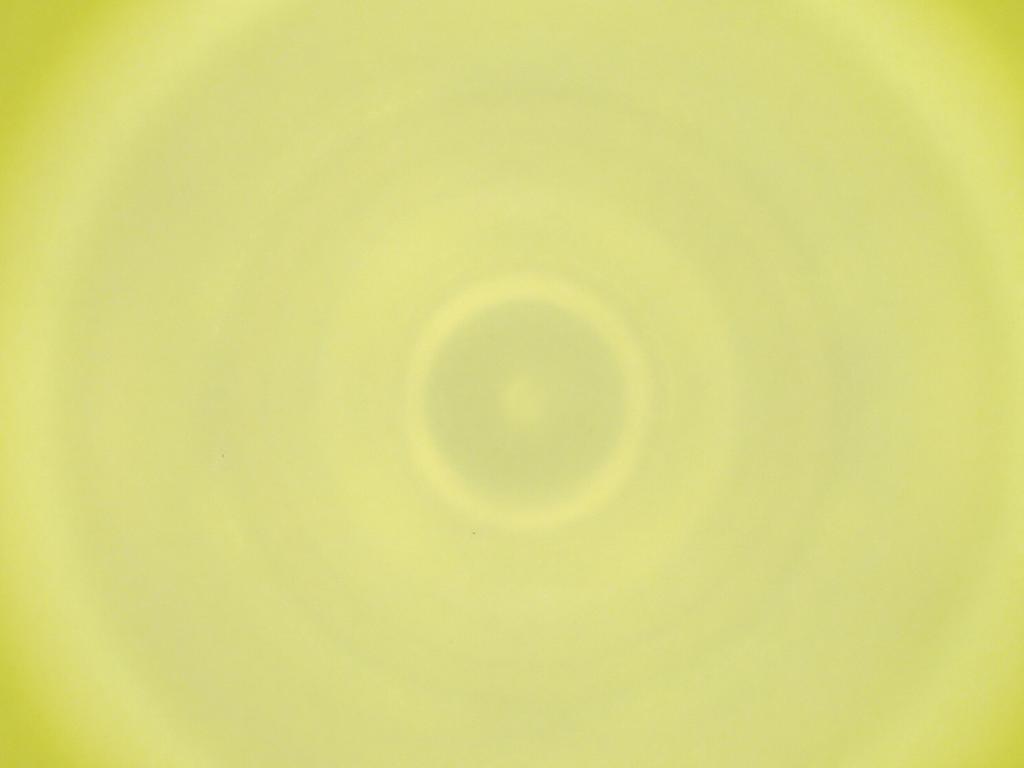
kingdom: Animalia
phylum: Arthropoda
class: Insecta
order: Diptera
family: Cecidomyiidae
